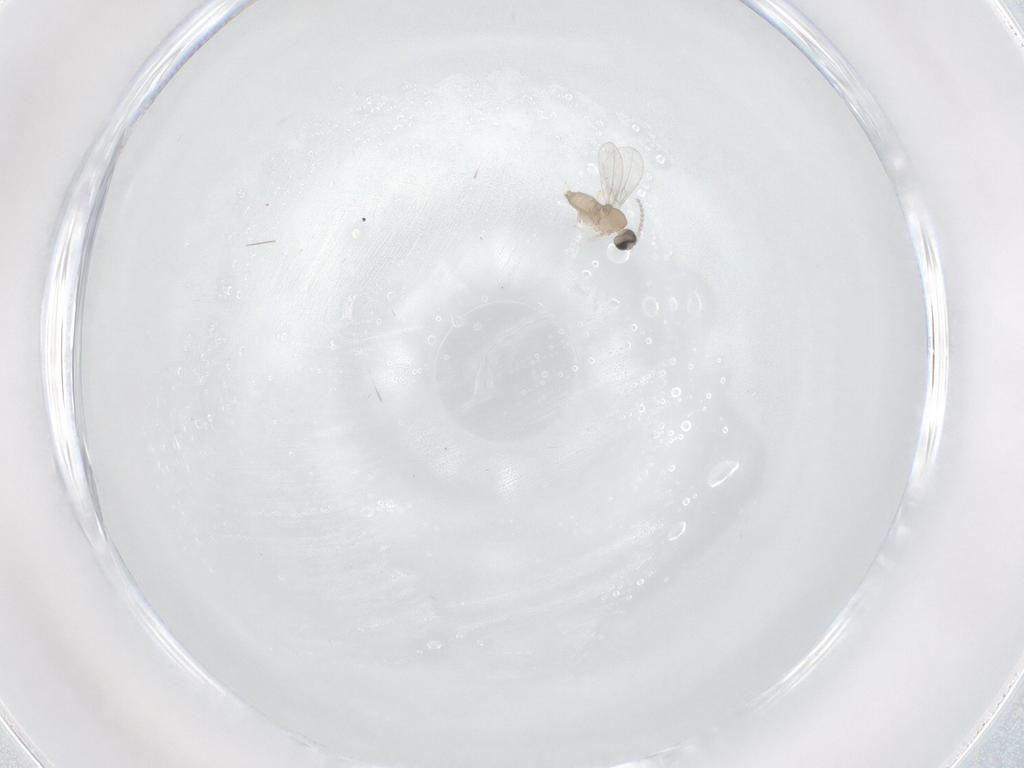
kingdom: Animalia
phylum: Arthropoda
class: Insecta
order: Diptera
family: Cecidomyiidae
